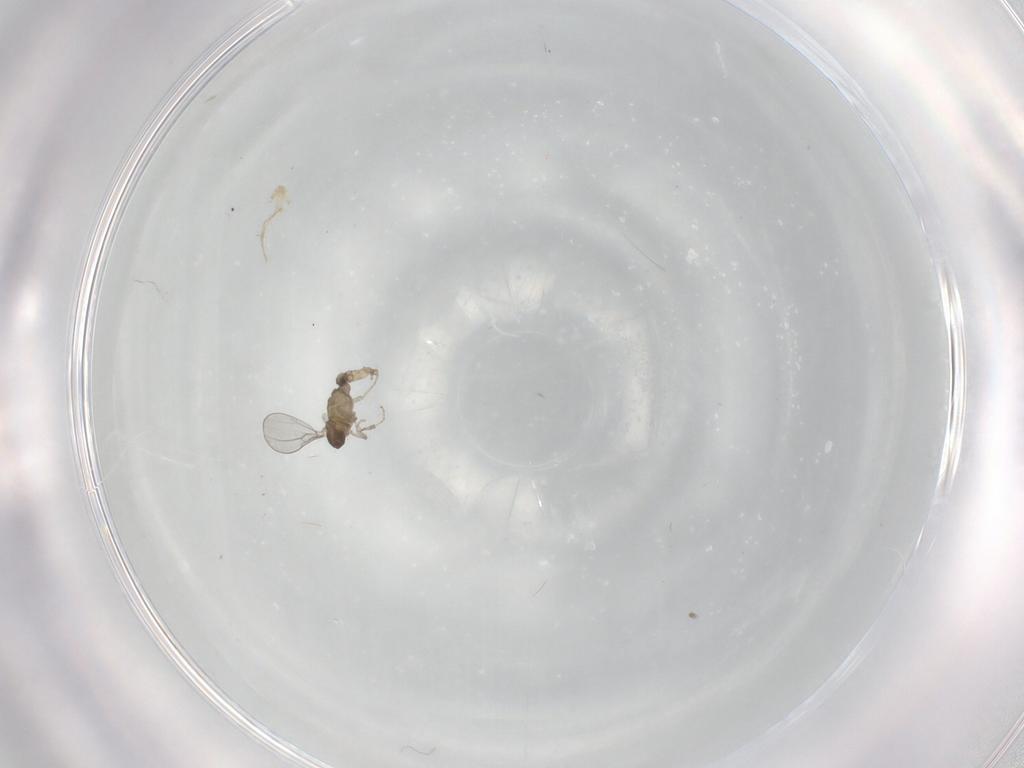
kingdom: Animalia
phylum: Arthropoda
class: Insecta
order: Diptera
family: Cecidomyiidae
